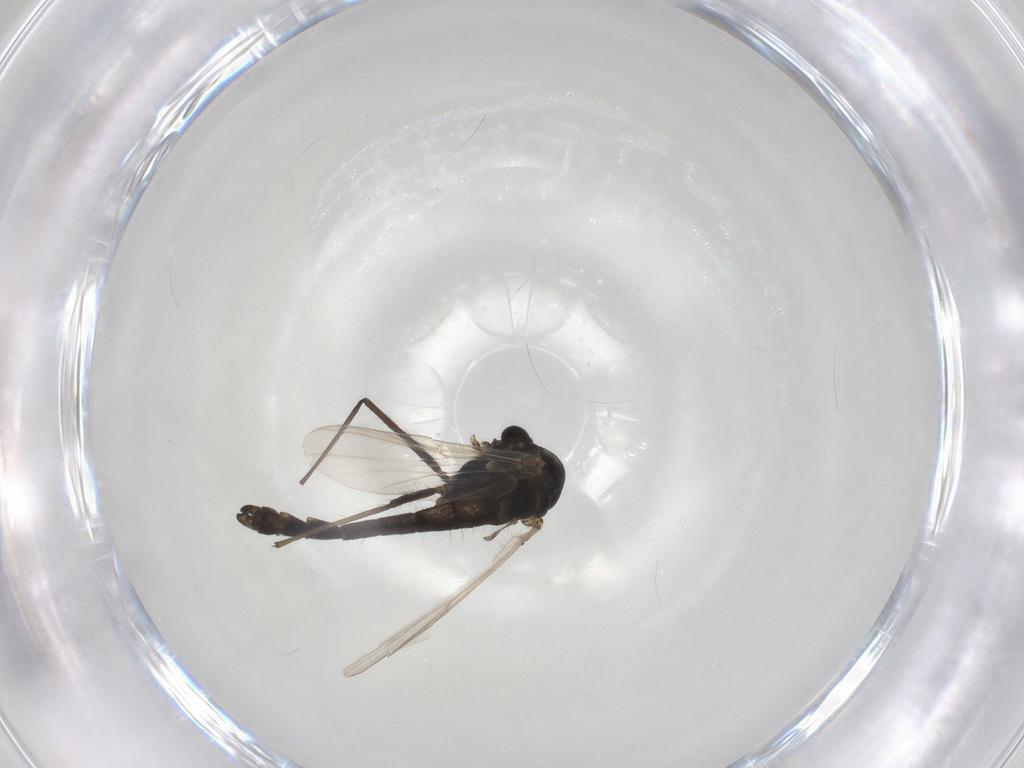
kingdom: Animalia
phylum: Arthropoda
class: Insecta
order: Diptera
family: Chironomidae
